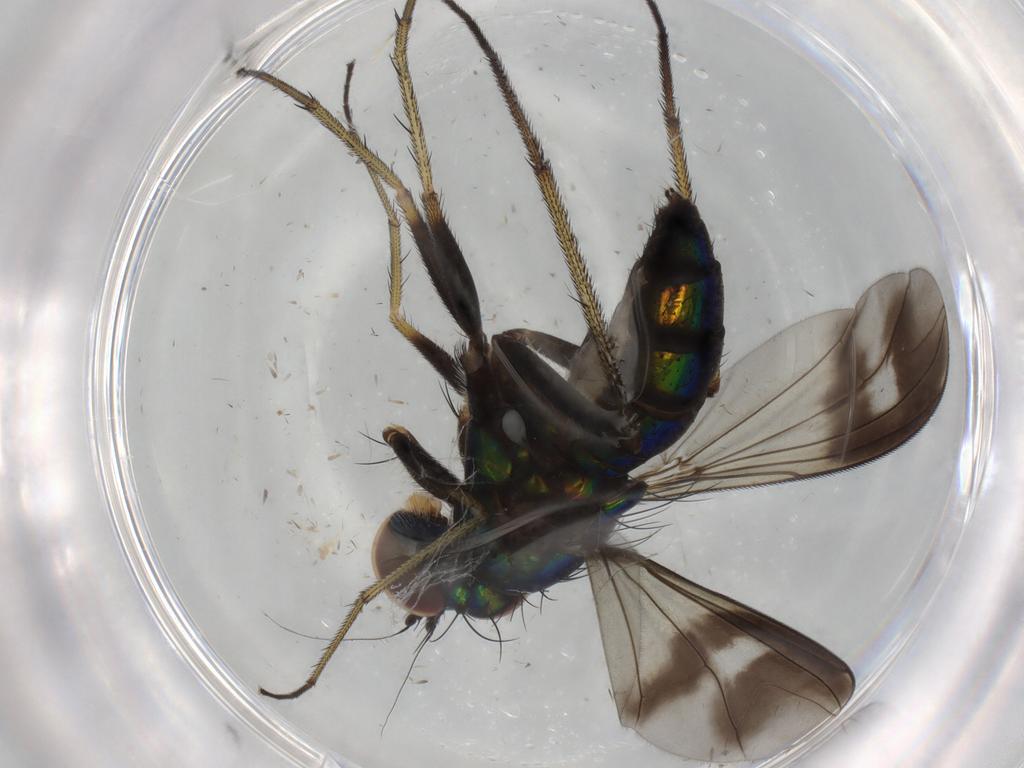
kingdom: Animalia
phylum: Arthropoda
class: Insecta
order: Diptera
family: Dolichopodidae
